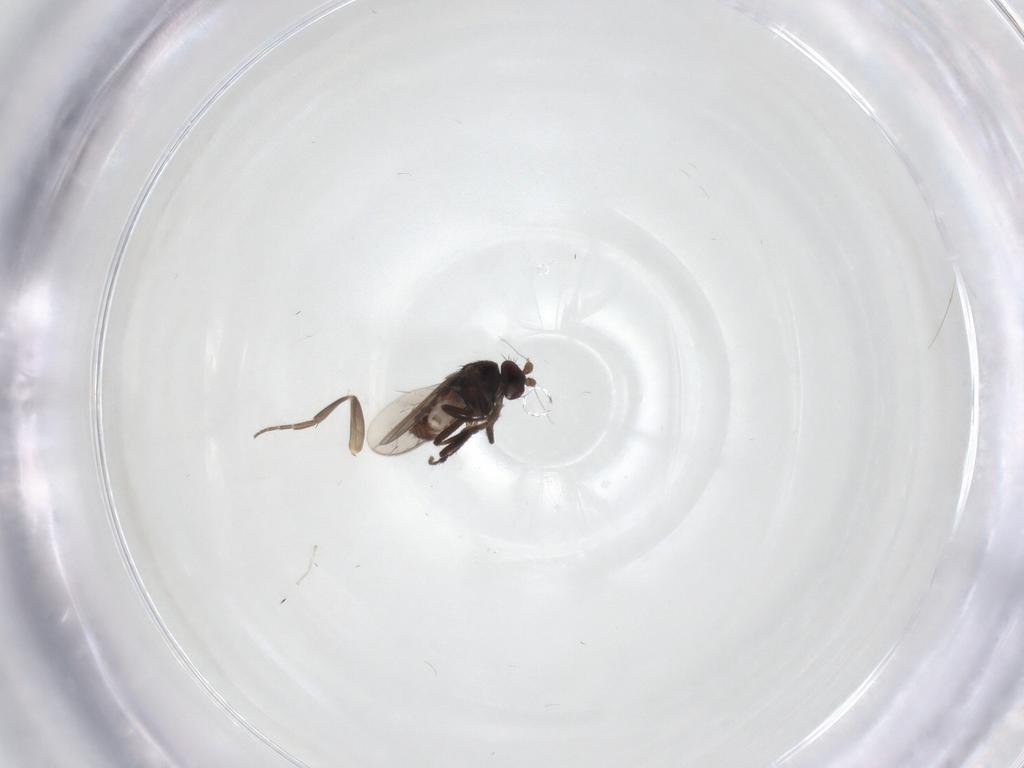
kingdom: Animalia
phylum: Arthropoda
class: Insecta
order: Diptera
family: Sphaeroceridae
